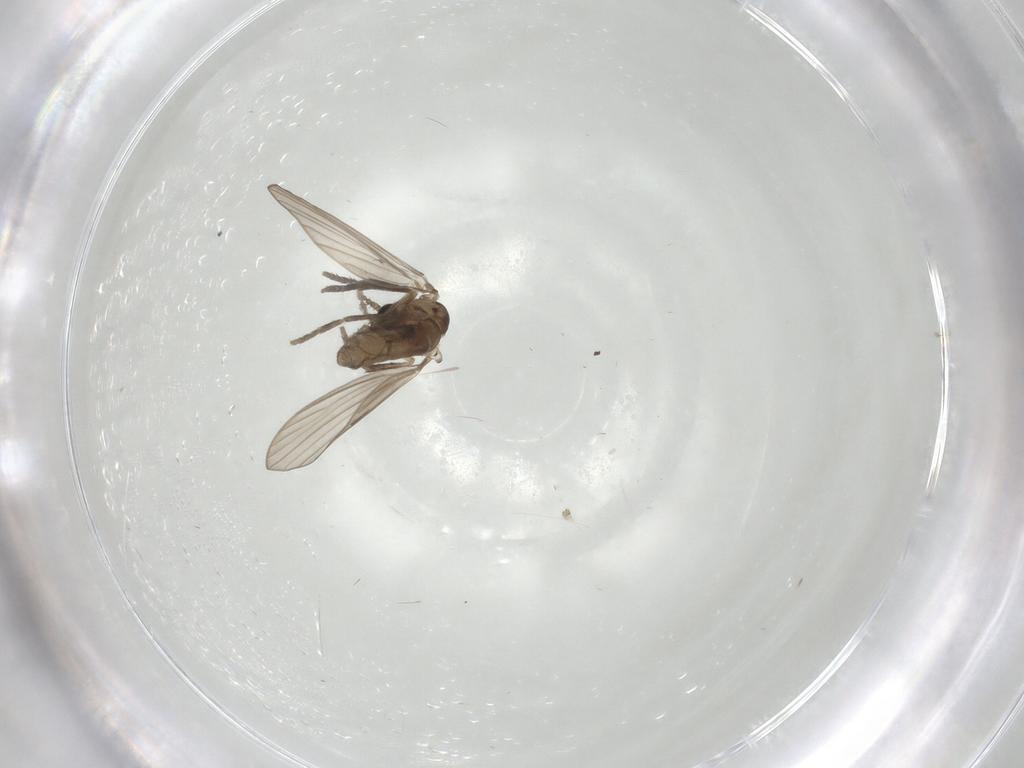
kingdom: Animalia
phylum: Arthropoda
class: Insecta
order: Diptera
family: Psychodidae
